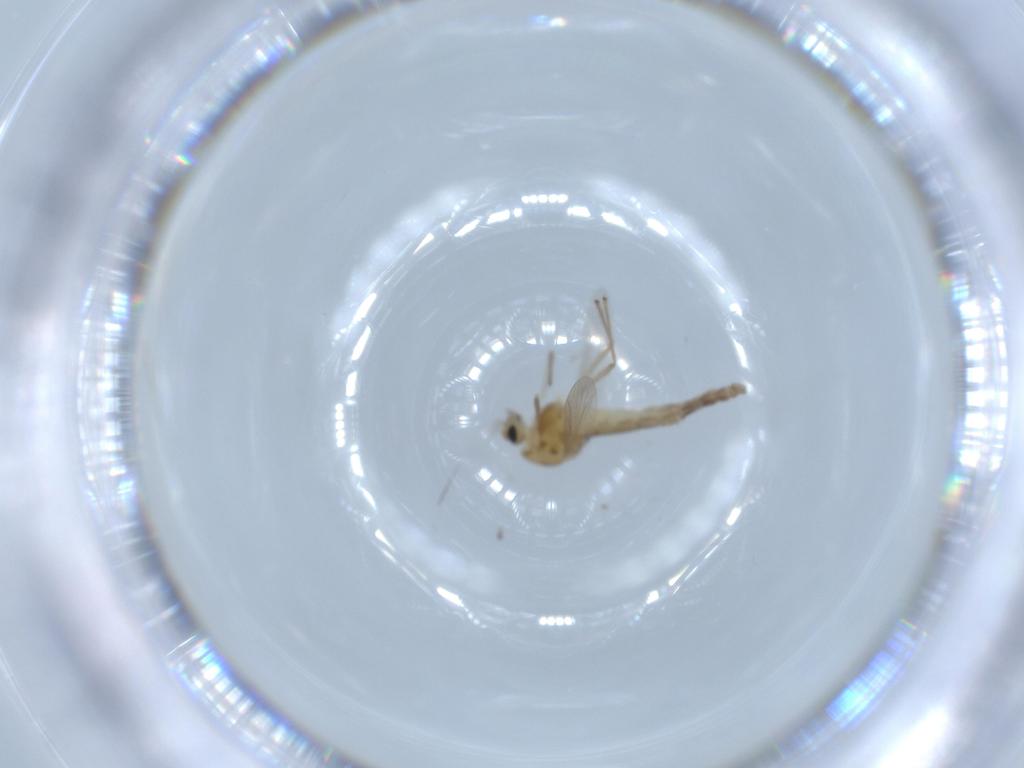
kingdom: Animalia
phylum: Arthropoda
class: Insecta
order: Diptera
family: Chironomidae
